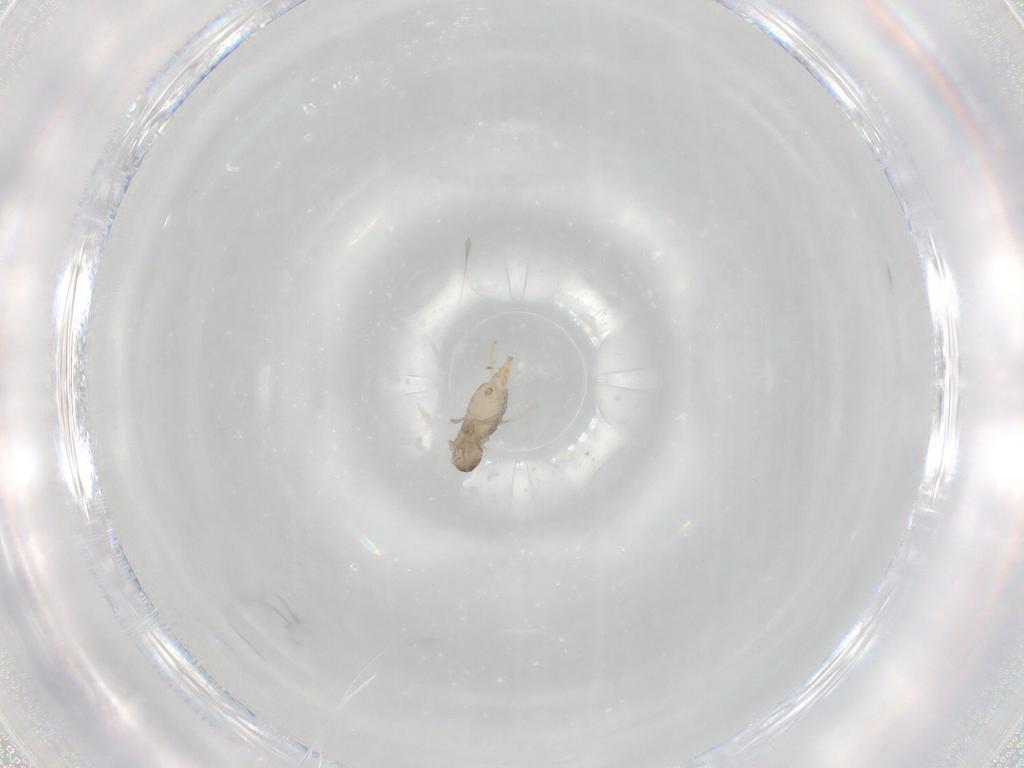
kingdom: Animalia
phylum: Arthropoda
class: Insecta
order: Diptera
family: Cecidomyiidae
